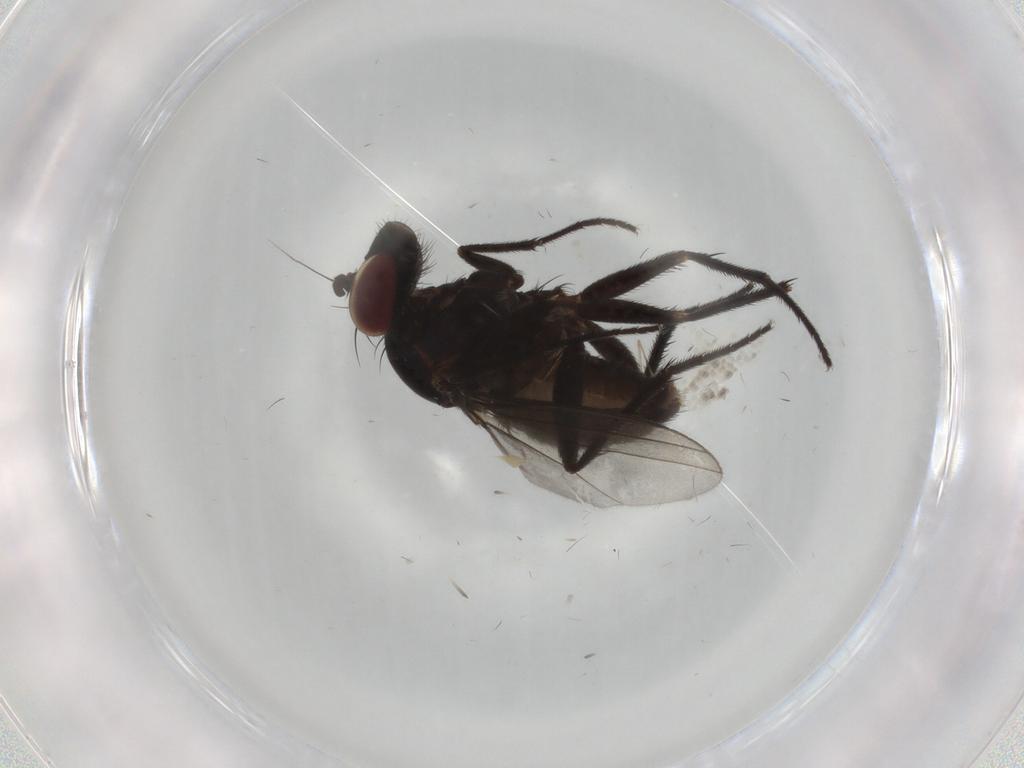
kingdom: Animalia
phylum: Arthropoda
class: Insecta
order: Diptera
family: Dolichopodidae
